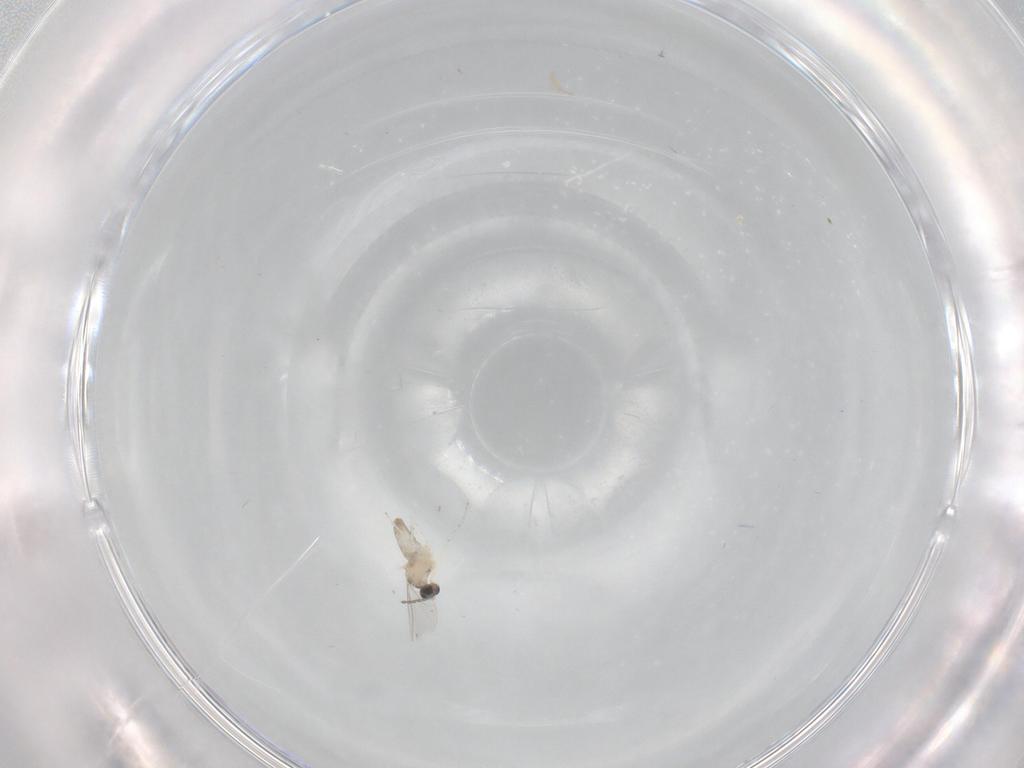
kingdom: Animalia
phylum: Arthropoda
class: Insecta
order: Diptera
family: Cecidomyiidae
